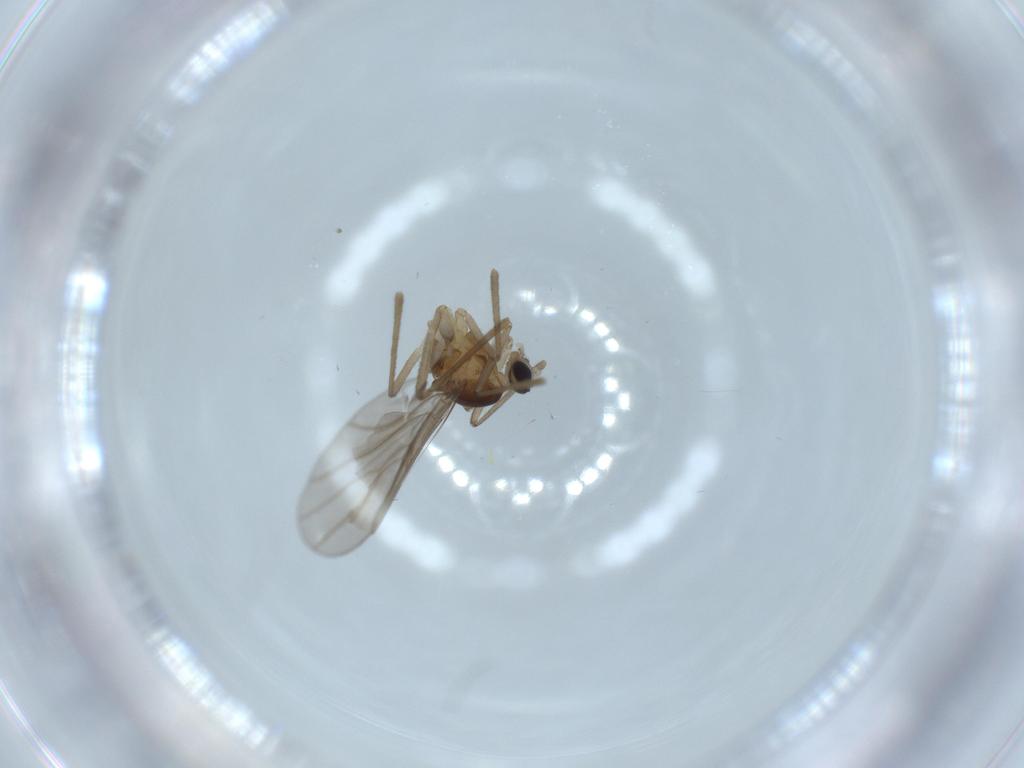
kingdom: Animalia
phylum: Arthropoda
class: Insecta
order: Diptera
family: Cecidomyiidae
